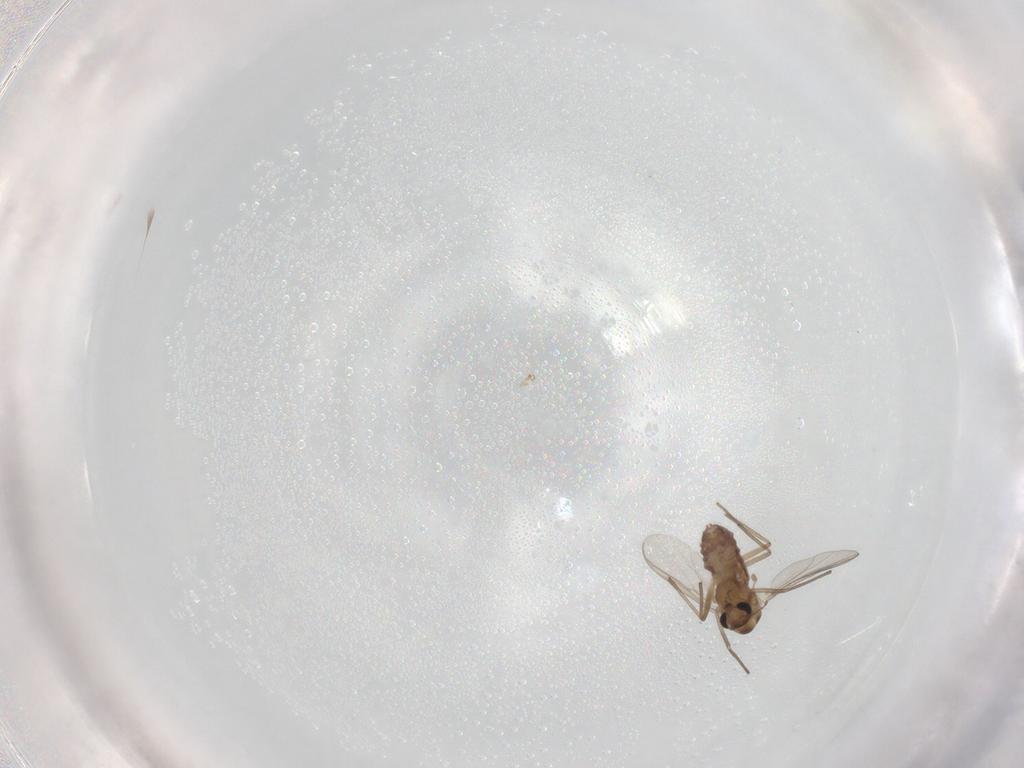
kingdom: Animalia
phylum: Arthropoda
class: Insecta
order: Diptera
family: Chironomidae
